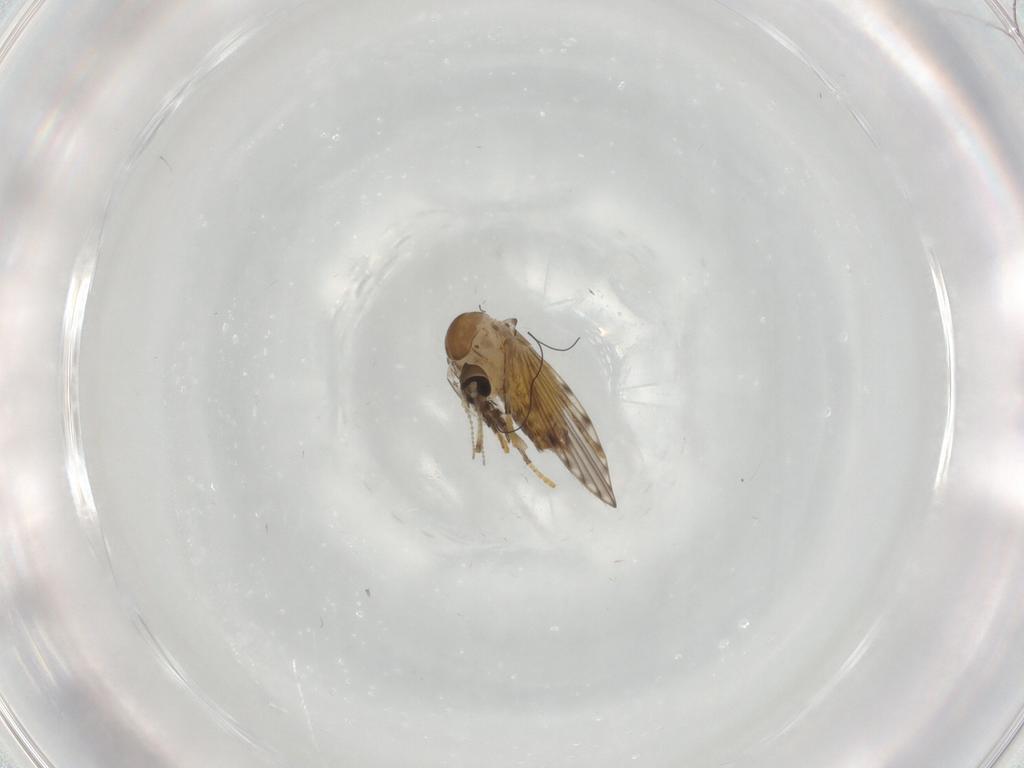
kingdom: Animalia
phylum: Arthropoda
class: Insecta
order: Diptera
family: Psychodidae
